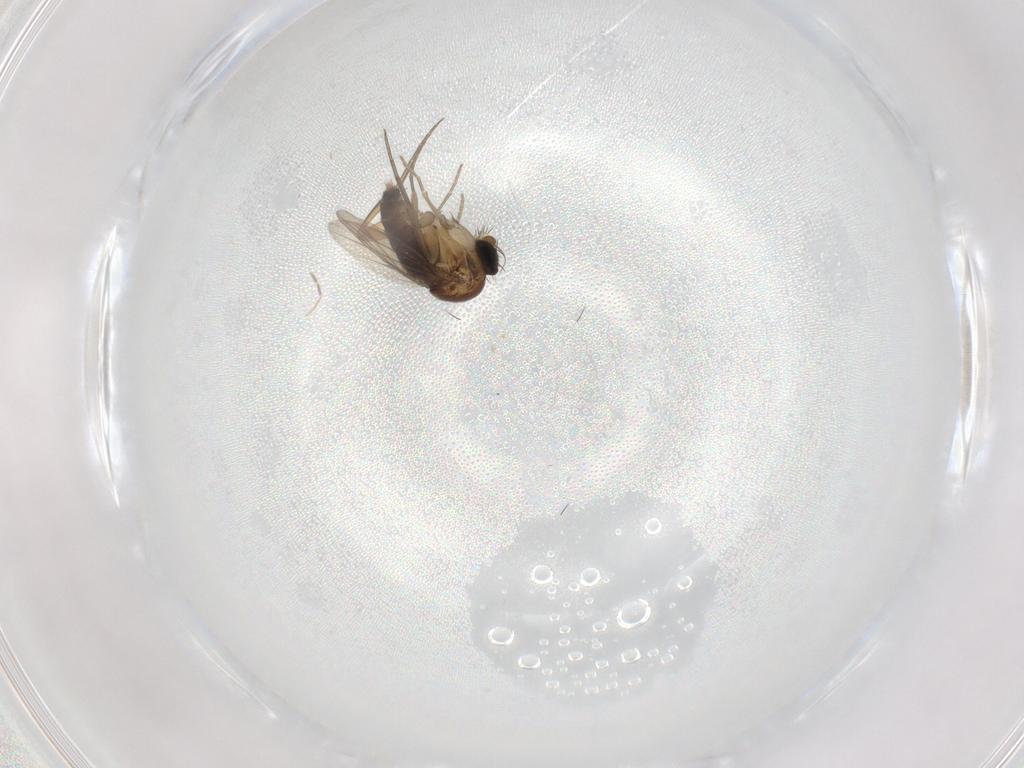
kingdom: Animalia
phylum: Arthropoda
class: Insecta
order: Diptera
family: Phoridae
